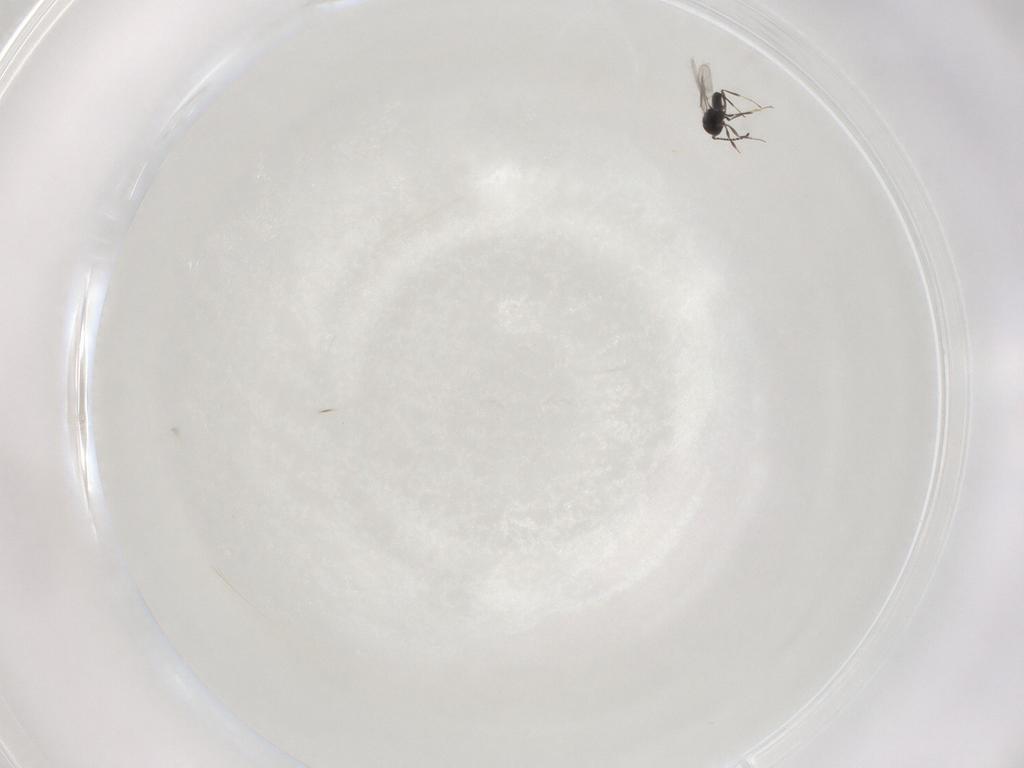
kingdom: Animalia
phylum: Arthropoda
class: Insecta
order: Hymenoptera
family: Scelionidae
